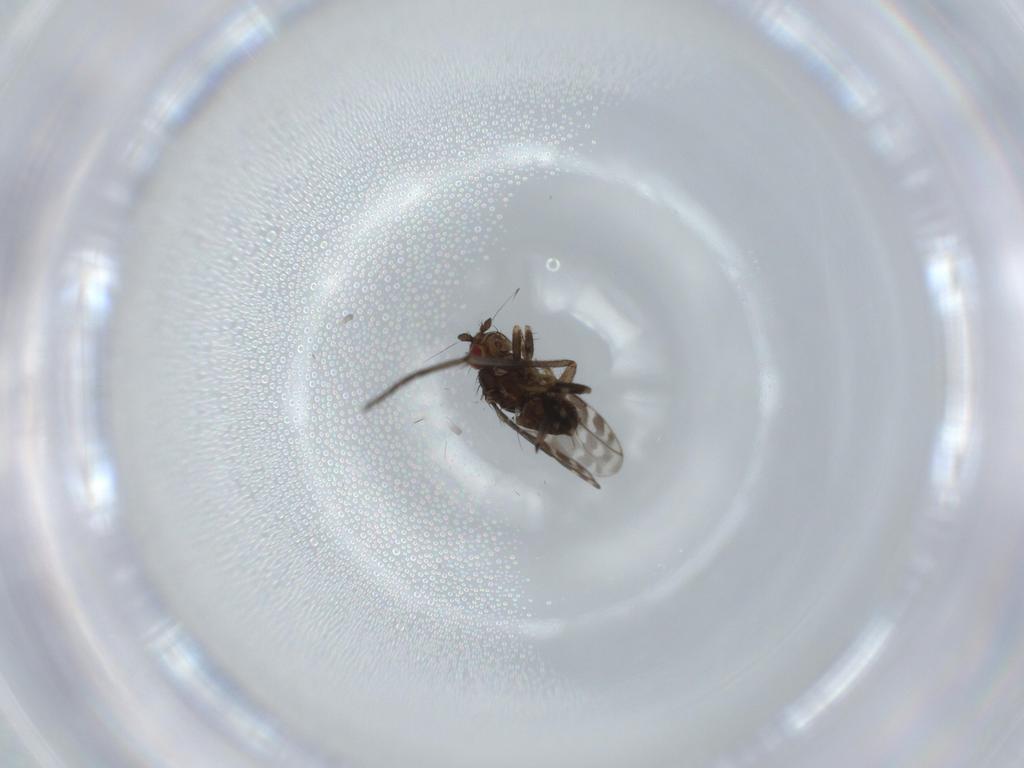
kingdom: Animalia
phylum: Arthropoda
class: Insecta
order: Diptera
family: Sphaeroceridae
